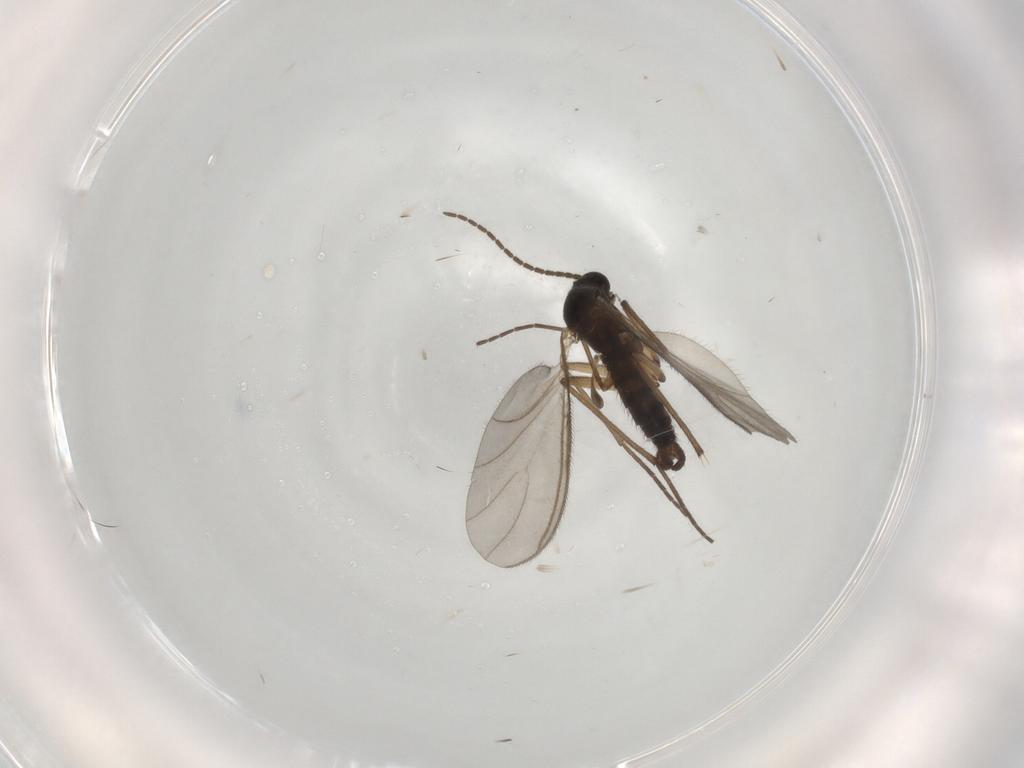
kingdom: Animalia
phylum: Arthropoda
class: Insecta
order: Diptera
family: Sciaridae
